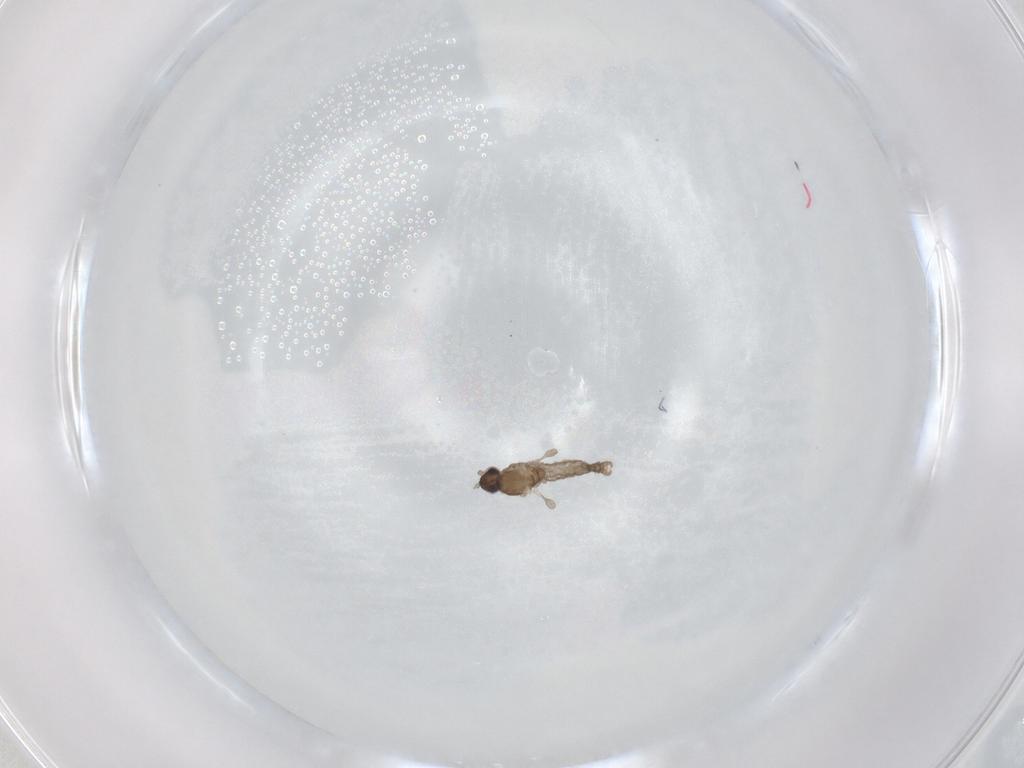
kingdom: Animalia
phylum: Arthropoda
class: Insecta
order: Diptera
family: Cecidomyiidae
